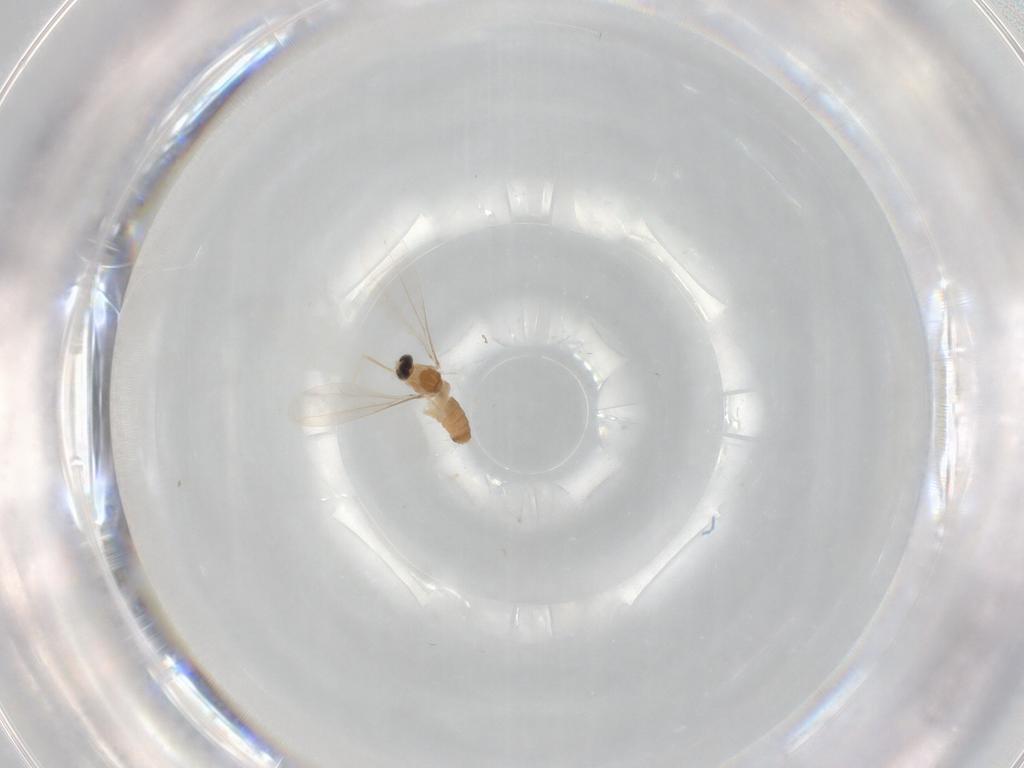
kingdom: Animalia
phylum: Arthropoda
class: Insecta
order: Diptera
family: Cecidomyiidae
